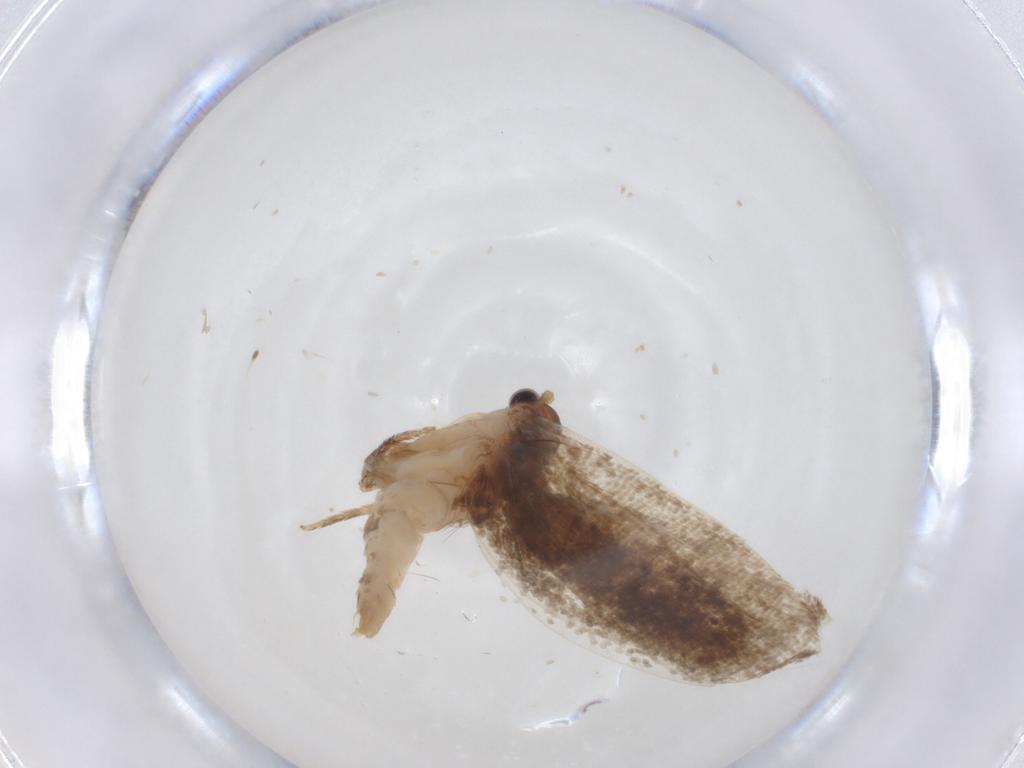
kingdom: Animalia
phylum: Arthropoda
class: Insecta
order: Lepidoptera
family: Tineidae
